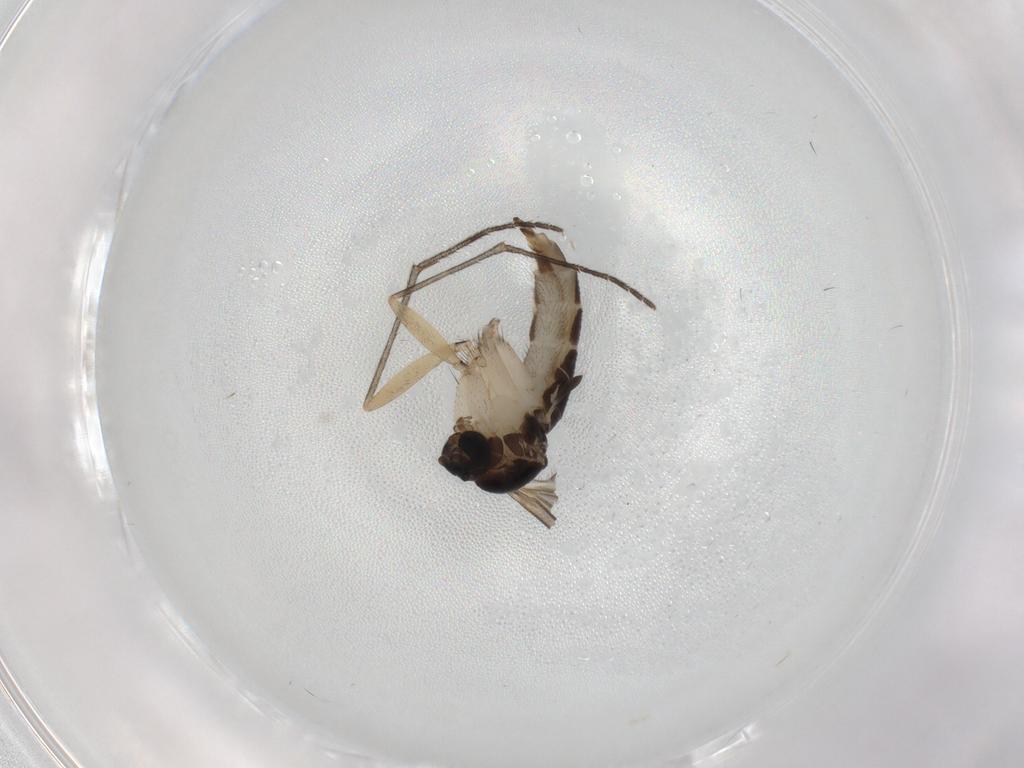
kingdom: Animalia
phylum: Arthropoda
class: Insecta
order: Diptera
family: Sciaridae
